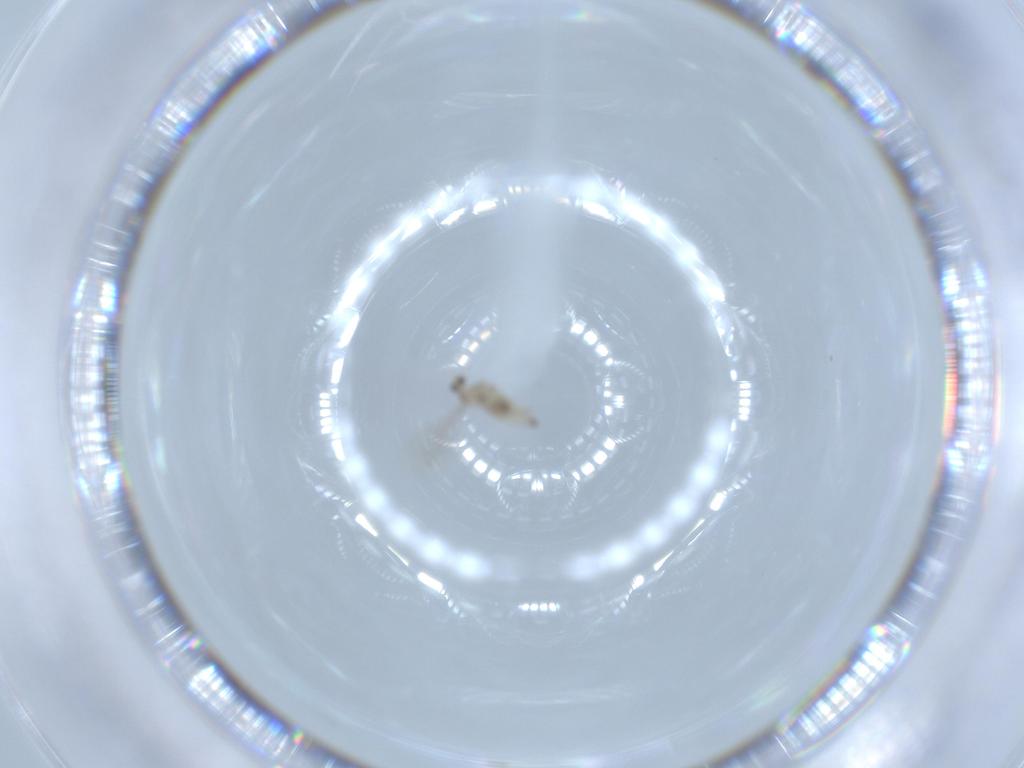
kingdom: Animalia
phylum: Arthropoda
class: Insecta
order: Diptera
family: Cecidomyiidae
